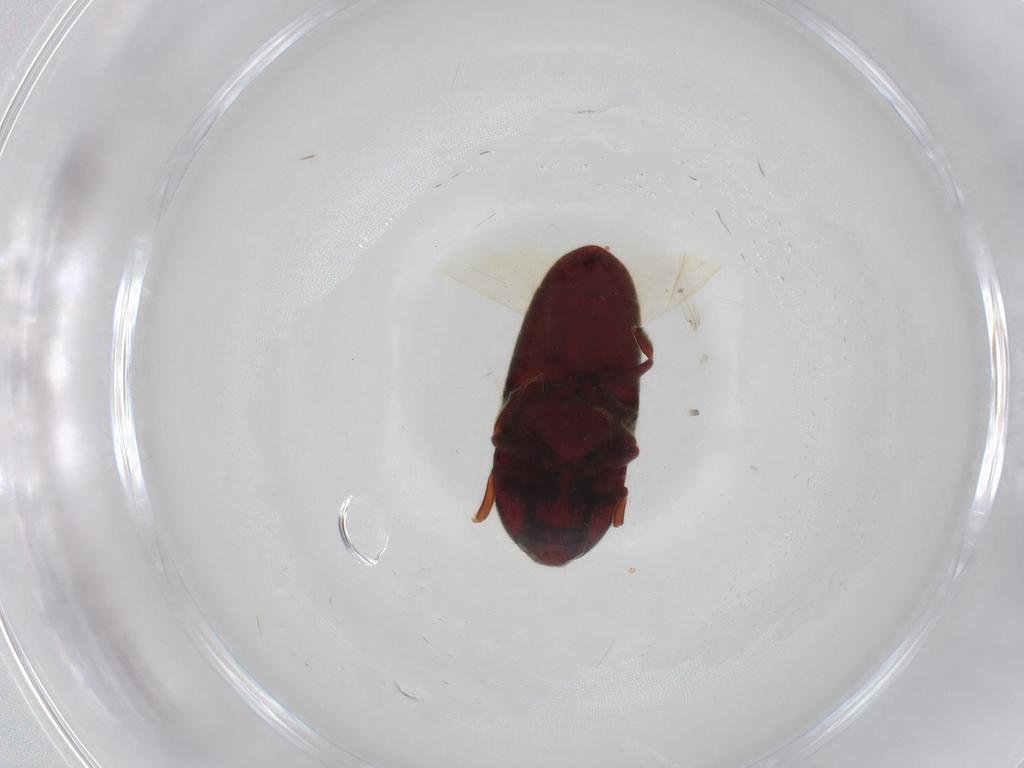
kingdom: Animalia
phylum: Arthropoda
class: Insecta
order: Coleoptera
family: Throscidae
